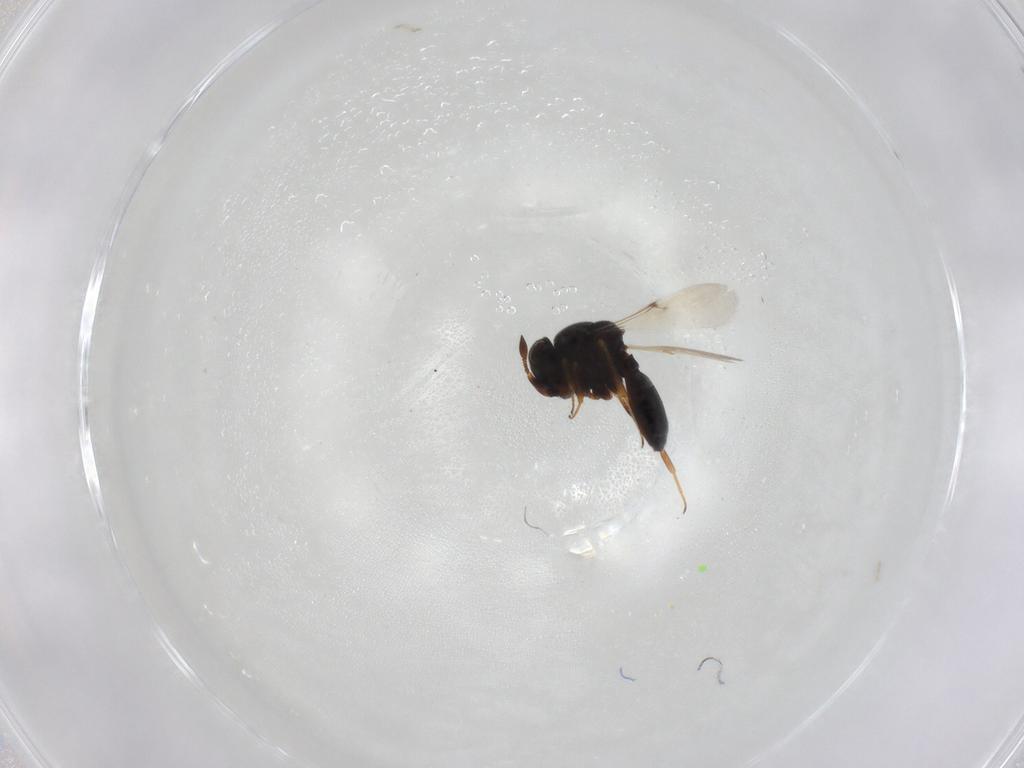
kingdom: Animalia
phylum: Arthropoda
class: Insecta
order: Hymenoptera
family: Scelionidae
